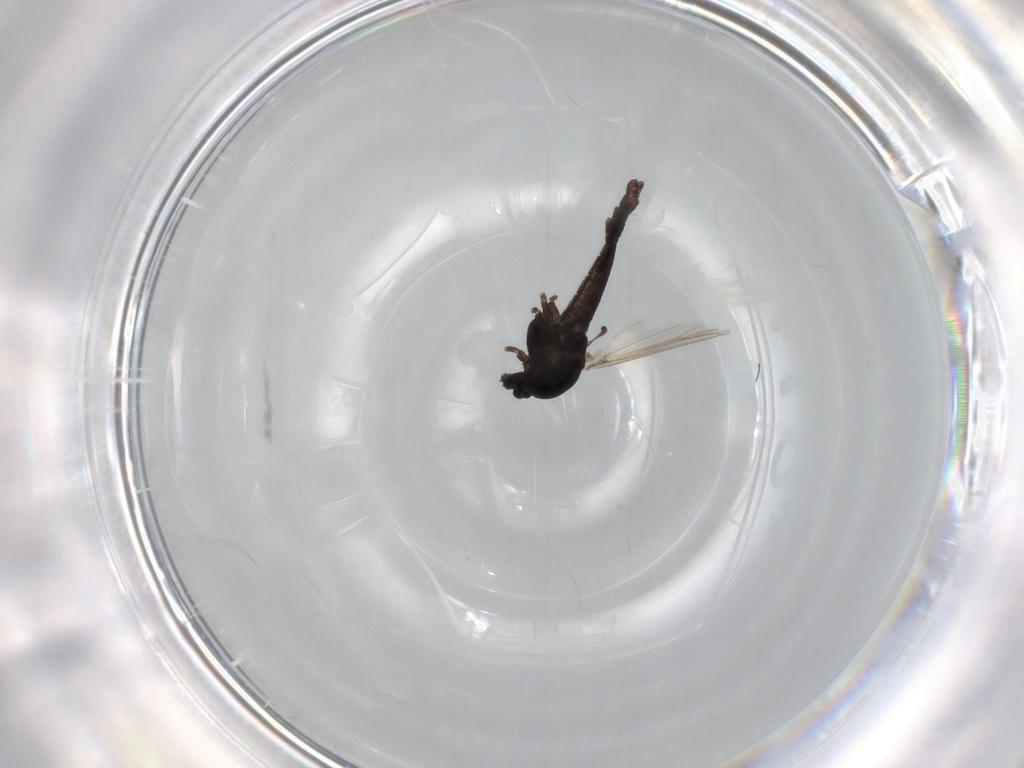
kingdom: Animalia
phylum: Arthropoda
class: Insecta
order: Diptera
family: Chironomidae
